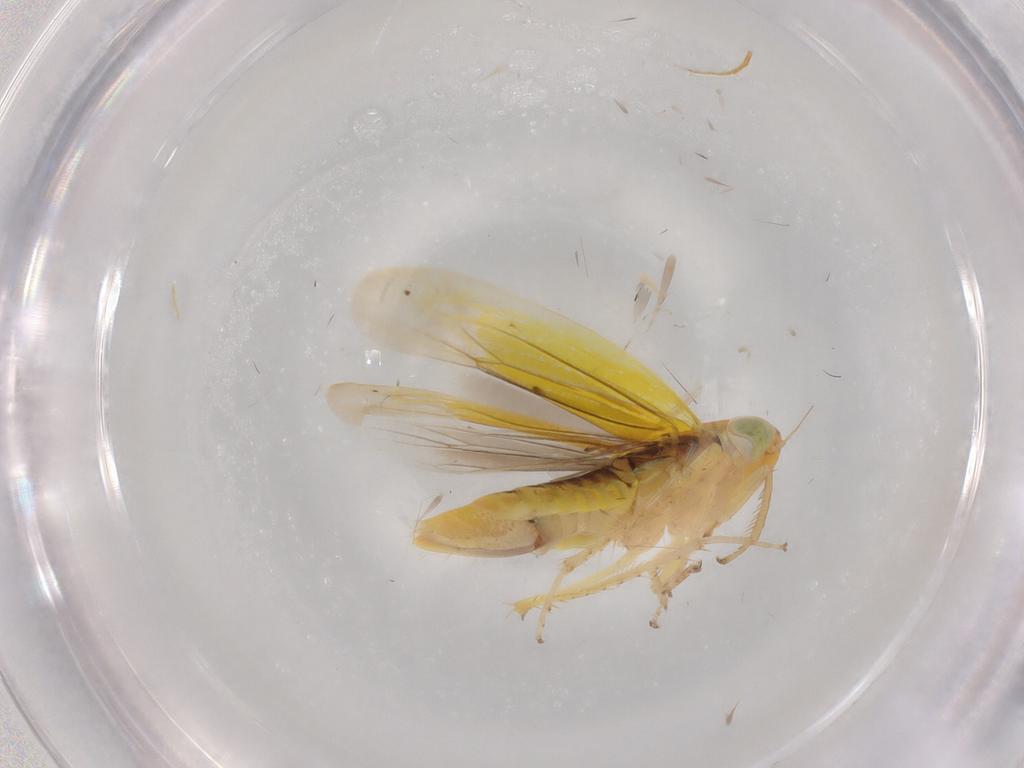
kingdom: Animalia
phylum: Arthropoda
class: Insecta
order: Hemiptera
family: Cicadellidae
